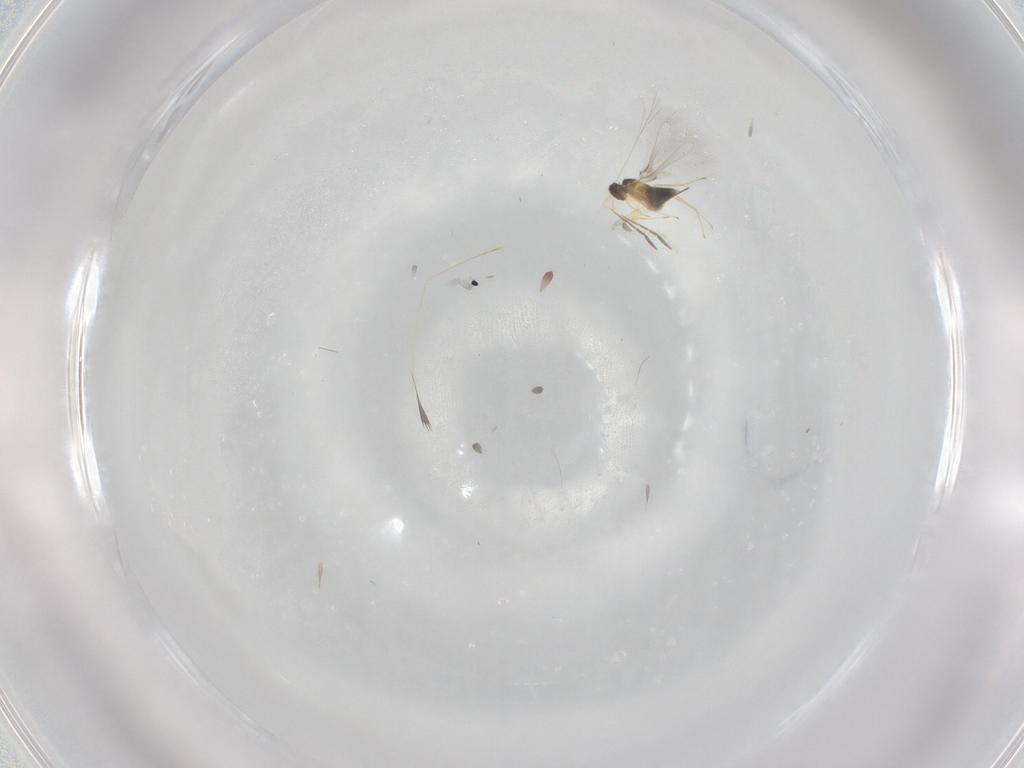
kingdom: Animalia
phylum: Arthropoda
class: Insecta
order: Hymenoptera
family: Mymaridae
